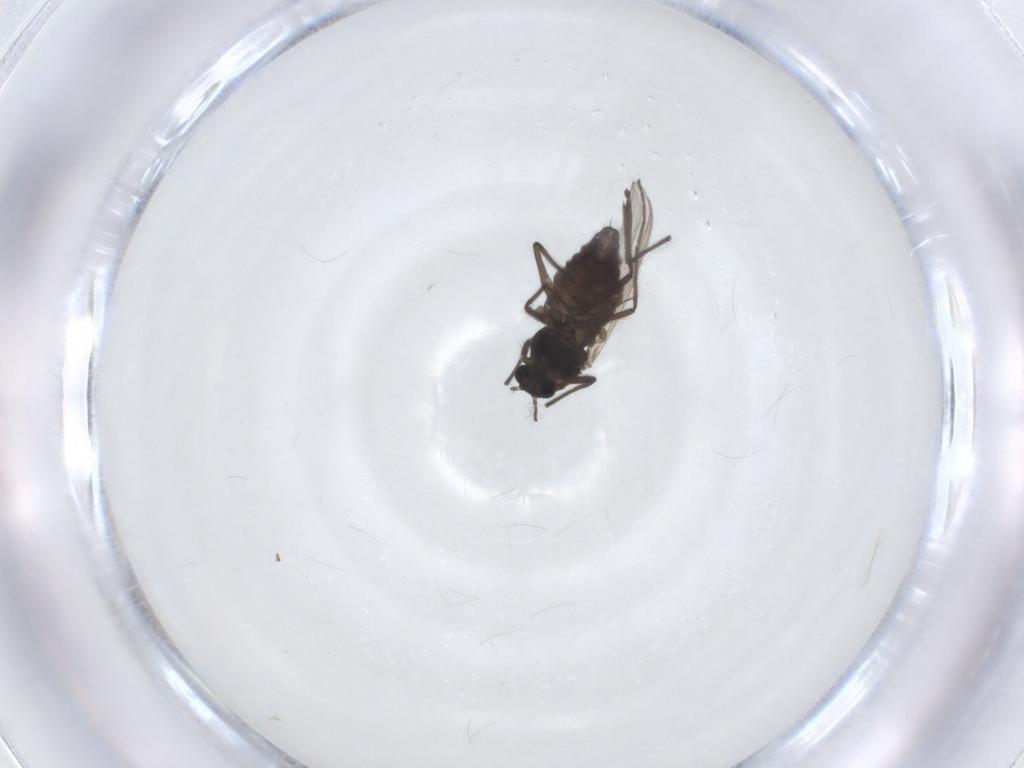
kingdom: Animalia
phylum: Arthropoda
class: Insecta
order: Diptera
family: Chironomidae
